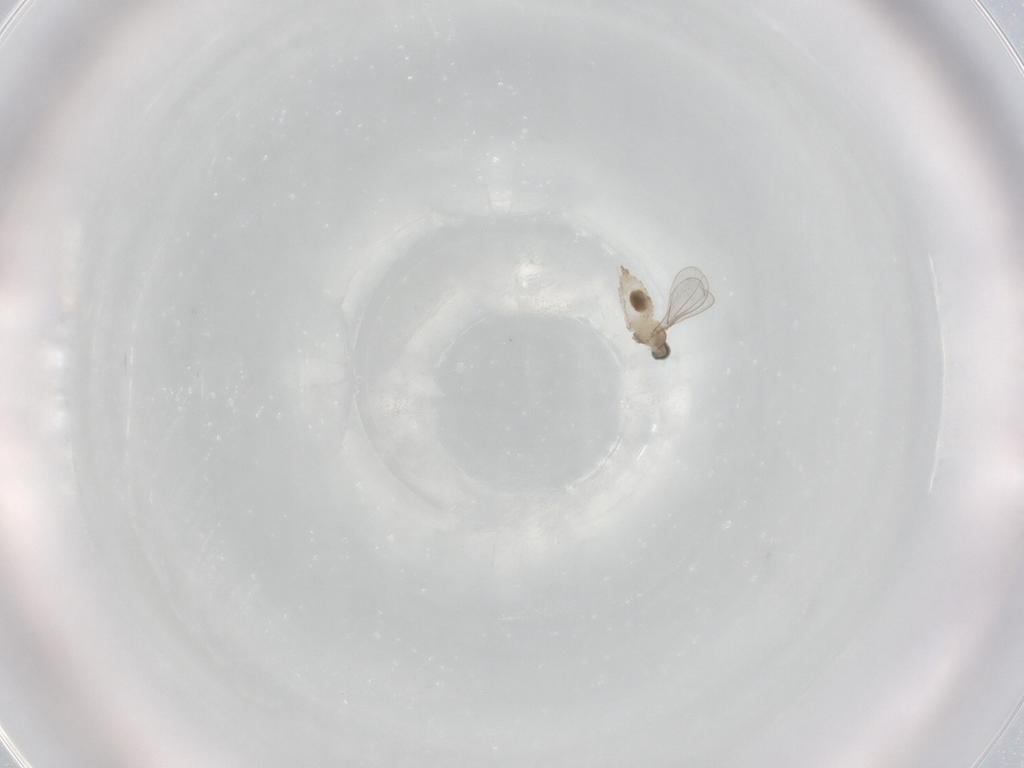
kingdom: Animalia
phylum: Arthropoda
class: Insecta
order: Diptera
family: Cecidomyiidae
